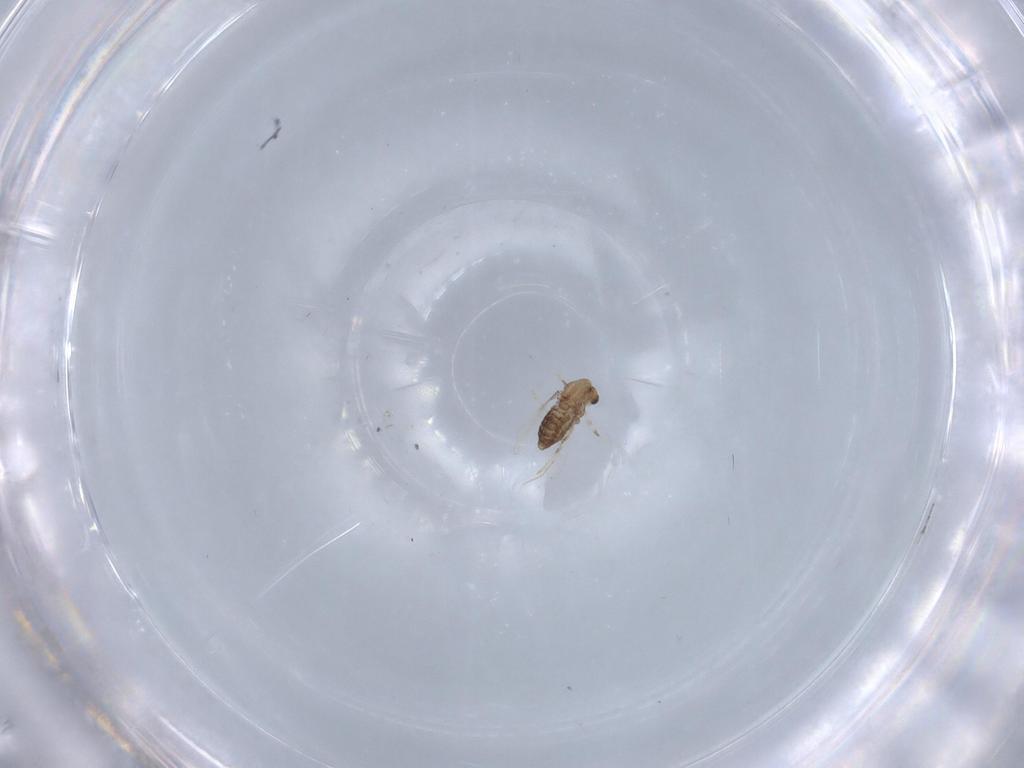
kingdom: Animalia
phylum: Arthropoda
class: Insecta
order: Diptera
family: Chironomidae
